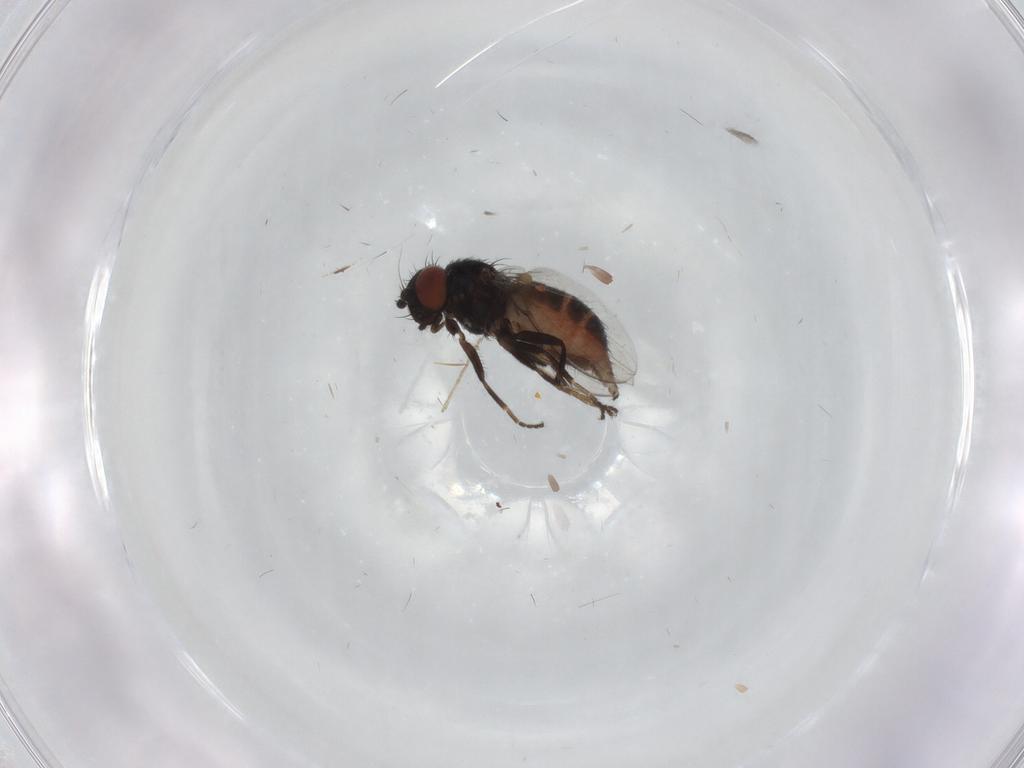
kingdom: Animalia
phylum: Arthropoda
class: Insecta
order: Diptera
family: Milichiidae
